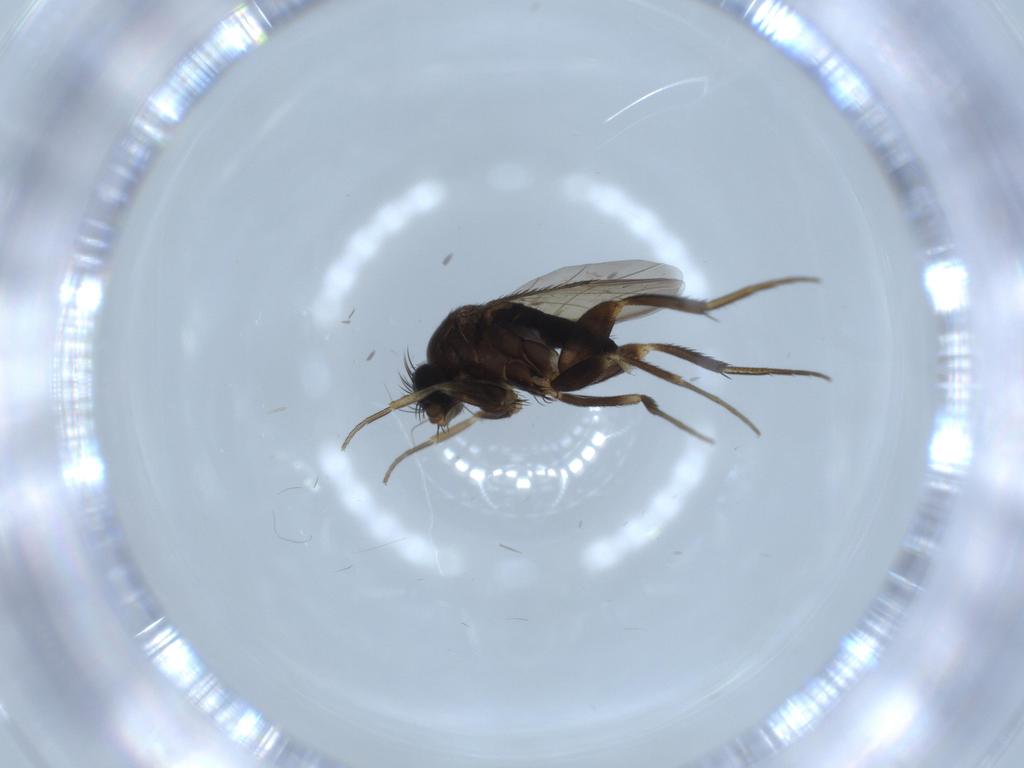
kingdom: Animalia
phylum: Arthropoda
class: Insecta
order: Diptera
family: Phoridae
